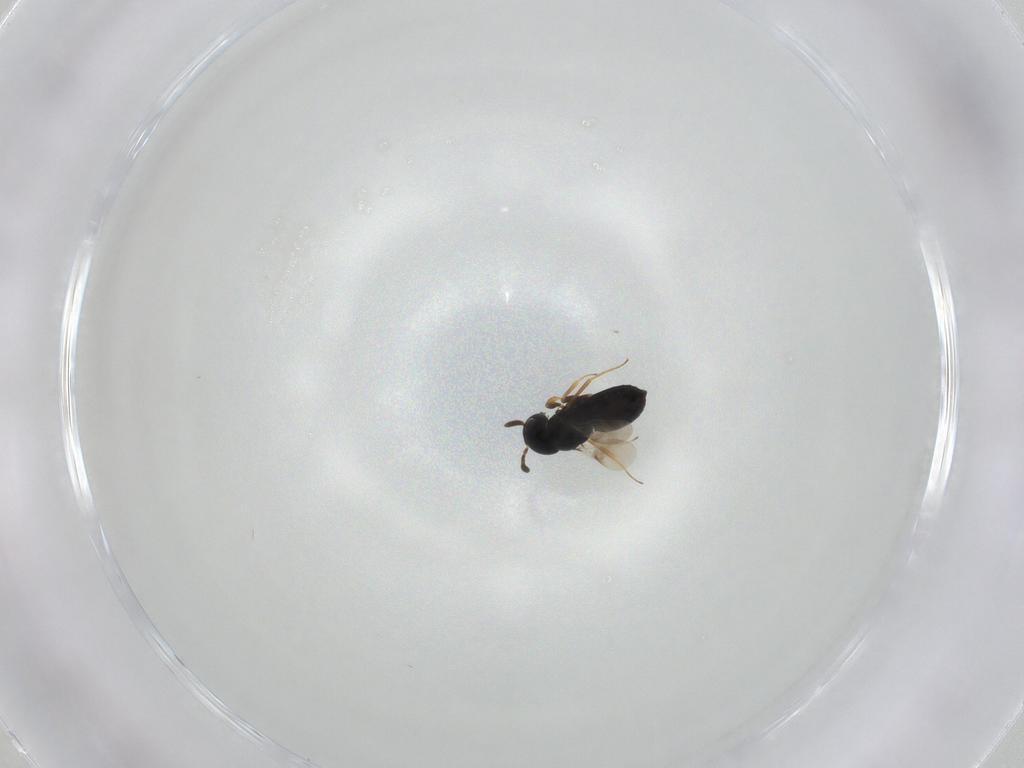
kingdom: Animalia
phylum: Arthropoda
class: Insecta
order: Hymenoptera
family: Scelionidae
